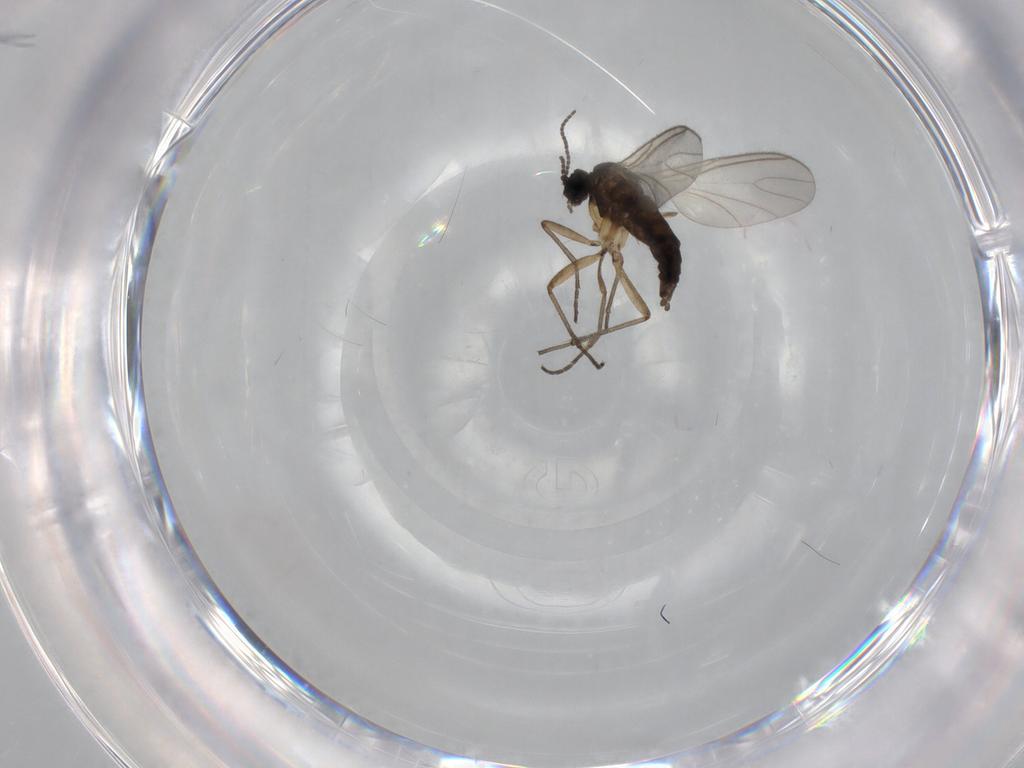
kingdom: Animalia
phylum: Arthropoda
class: Insecta
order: Diptera
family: Sciaridae
